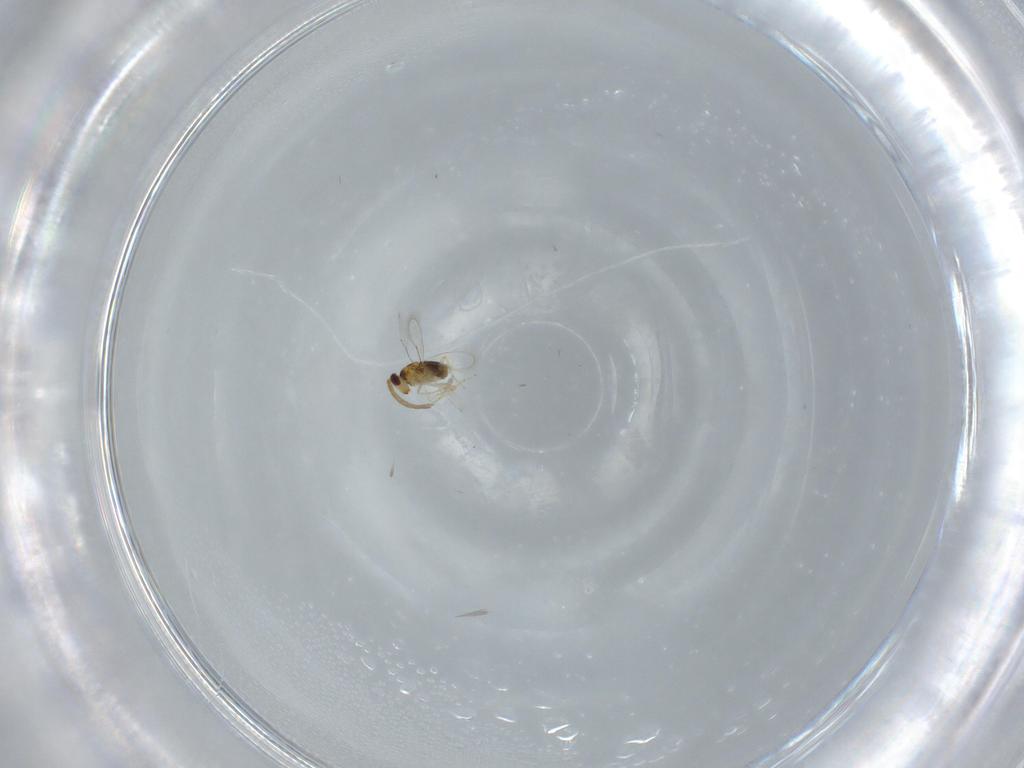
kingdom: Animalia
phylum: Arthropoda
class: Insecta
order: Hymenoptera
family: Aphelinidae
